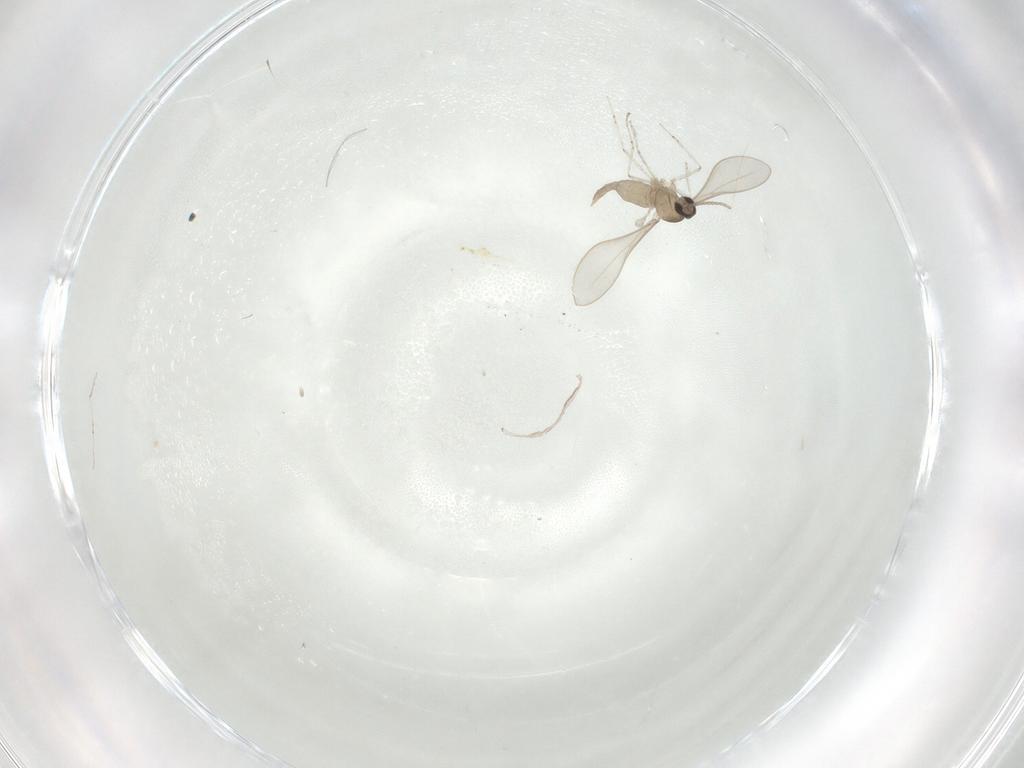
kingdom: Animalia
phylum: Arthropoda
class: Insecta
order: Diptera
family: Cecidomyiidae
